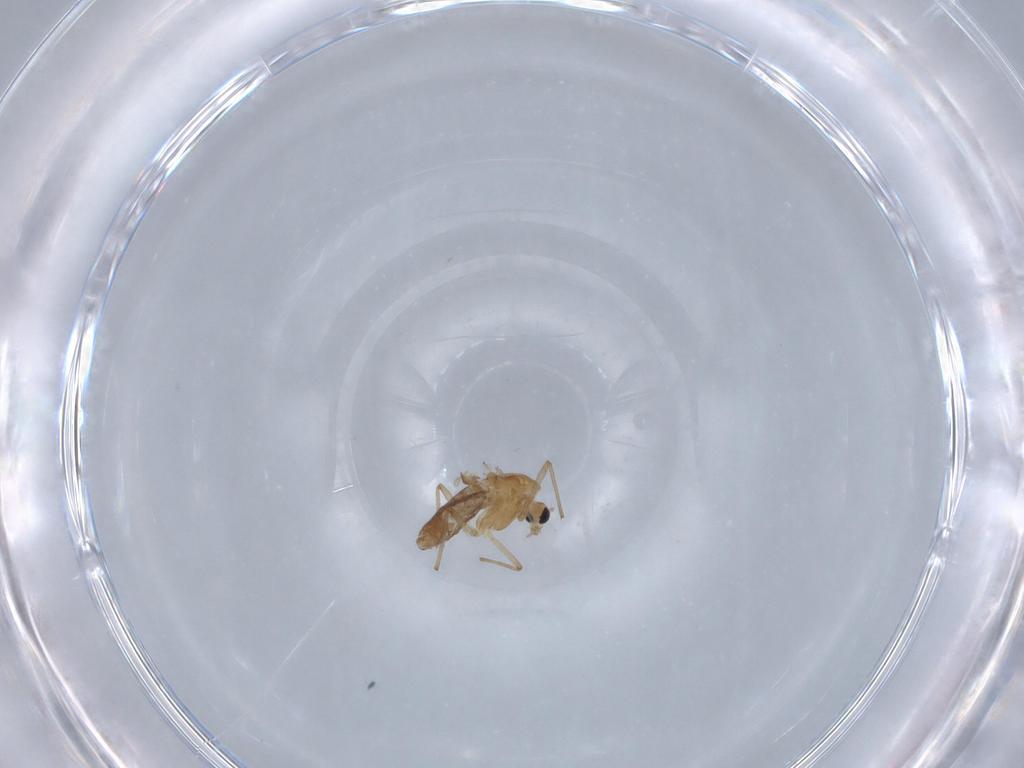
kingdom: Animalia
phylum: Arthropoda
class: Insecta
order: Diptera
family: Chironomidae
